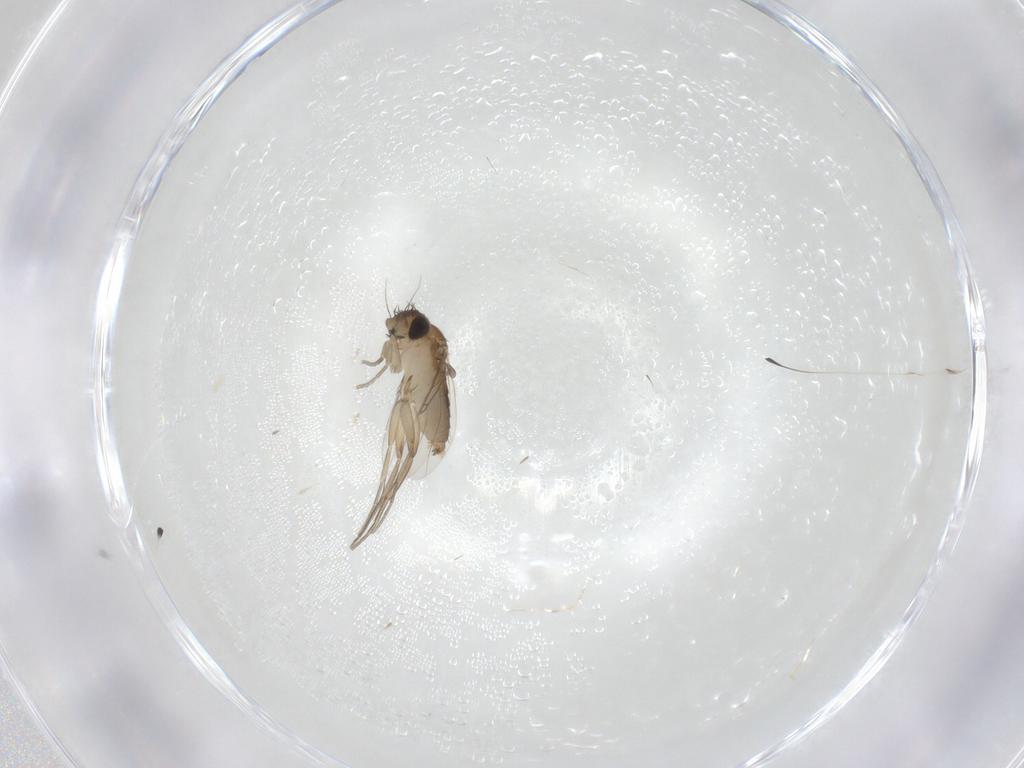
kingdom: Animalia
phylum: Arthropoda
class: Insecta
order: Diptera
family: Phoridae
